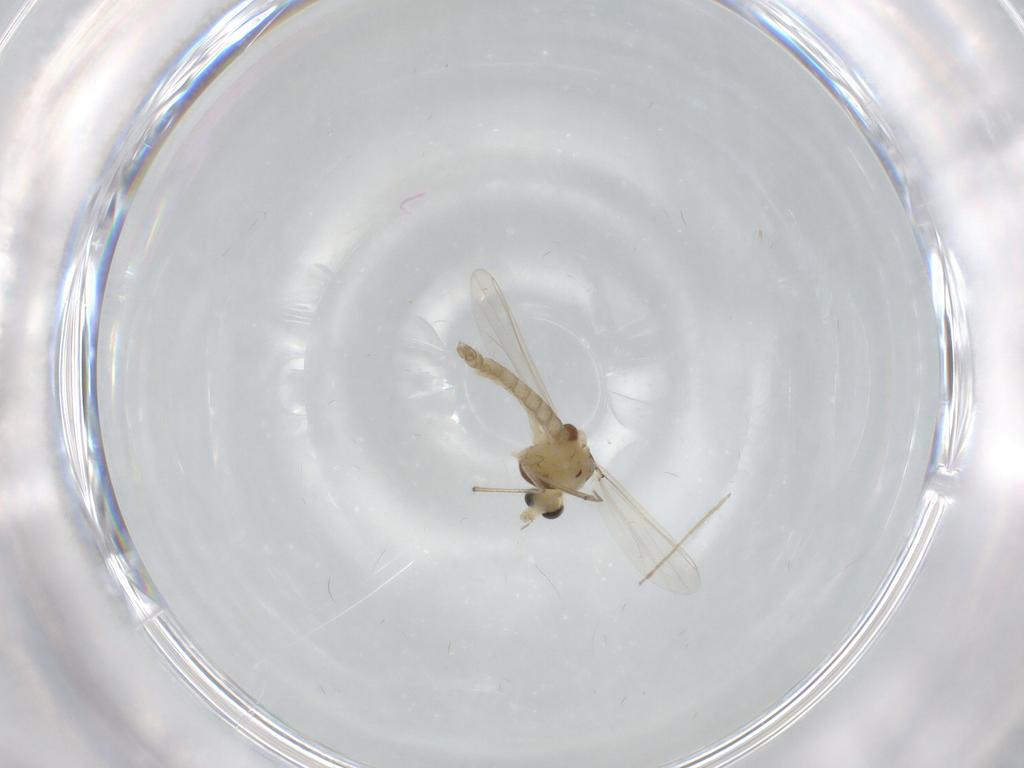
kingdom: Animalia
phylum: Arthropoda
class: Insecta
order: Diptera
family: Chironomidae
